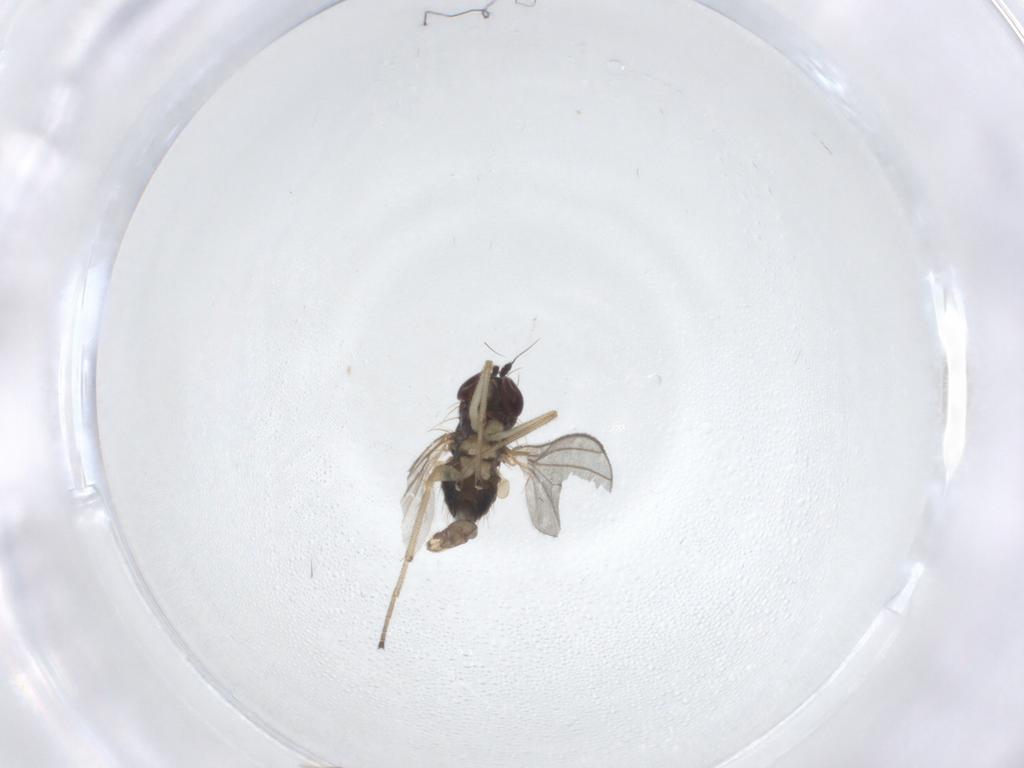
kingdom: Animalia
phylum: Arthropoda
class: Insecta
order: Diptera
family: Dolichopodidae
